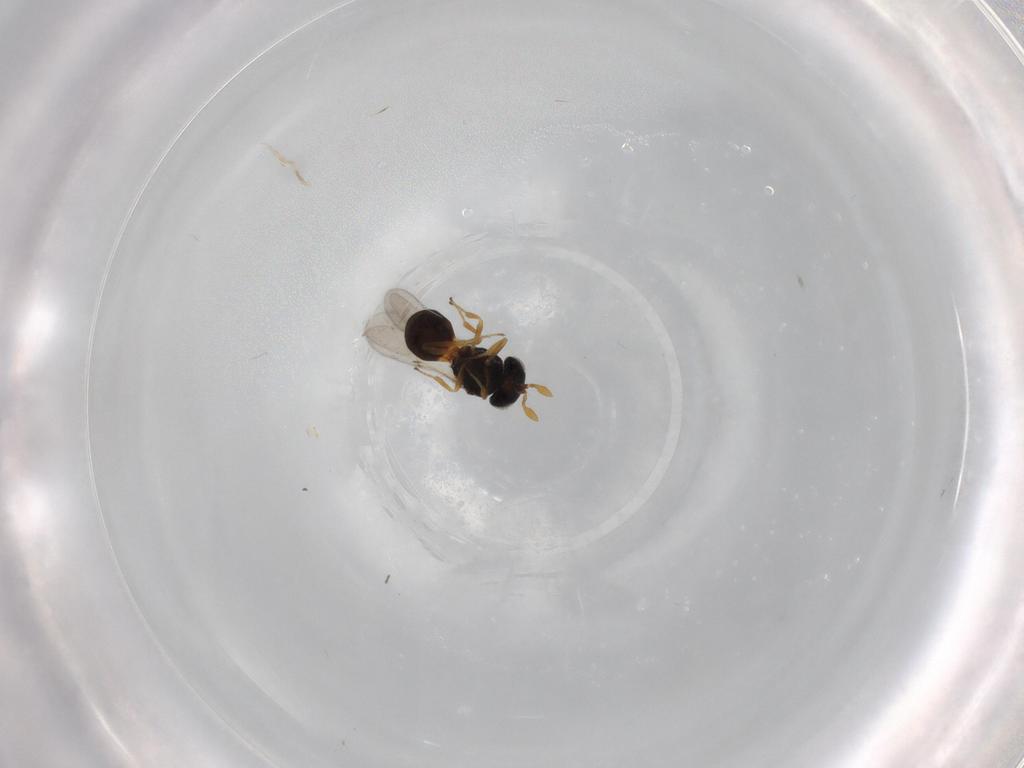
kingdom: Animalia
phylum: Arthropoda
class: Insecta
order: Hymenoptera
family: Scelionidae
